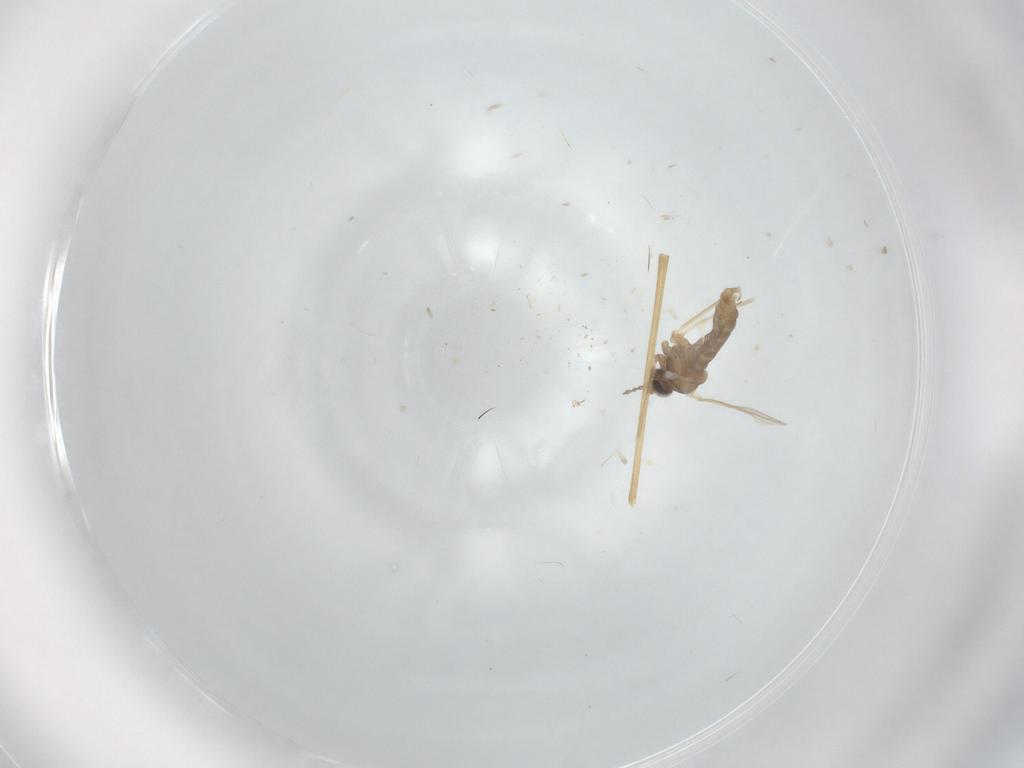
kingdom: Animalia
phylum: Arthropoda
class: Insecta
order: Diptera
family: Cecidomyiidae
